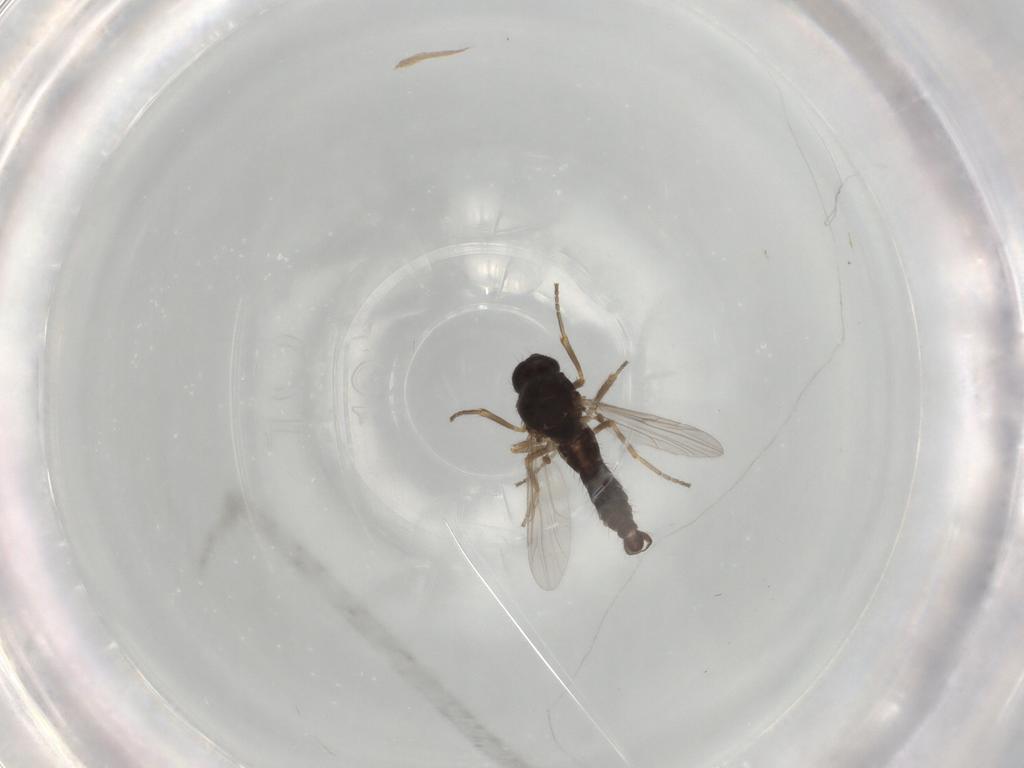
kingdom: Animalia
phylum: Arthropoda
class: Insecta
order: Diptera
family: Ceratopogonidae
